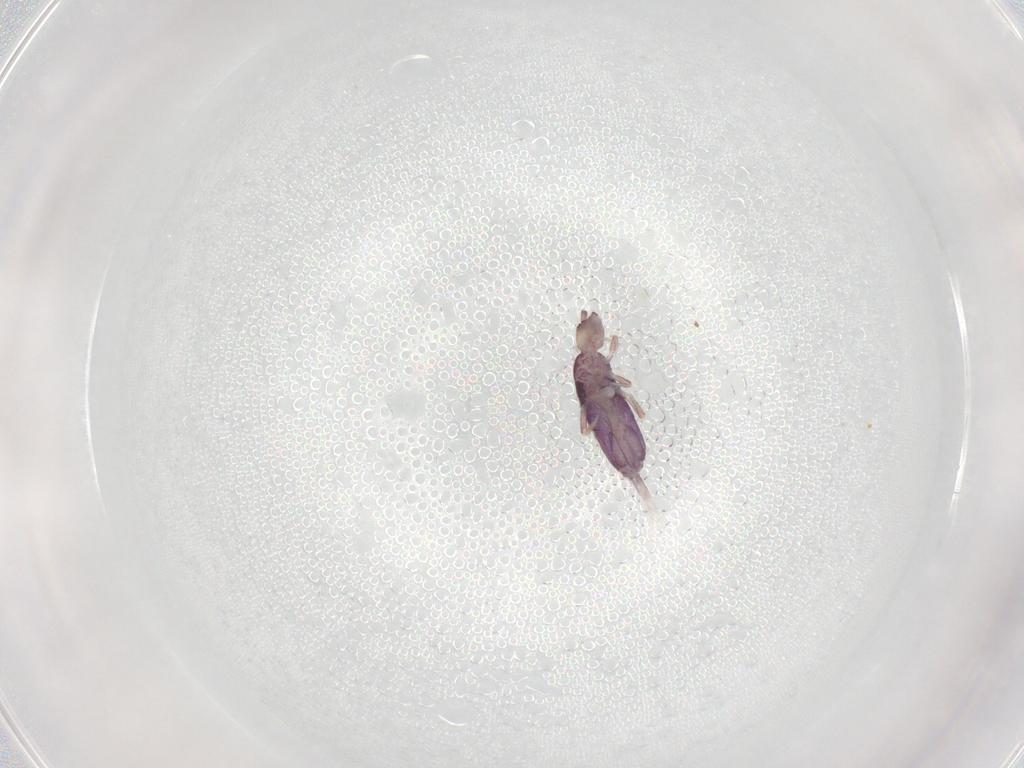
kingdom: Animalia
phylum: Arthropoda
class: Collembola
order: Entomobryomorpha
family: Entomobryidae
